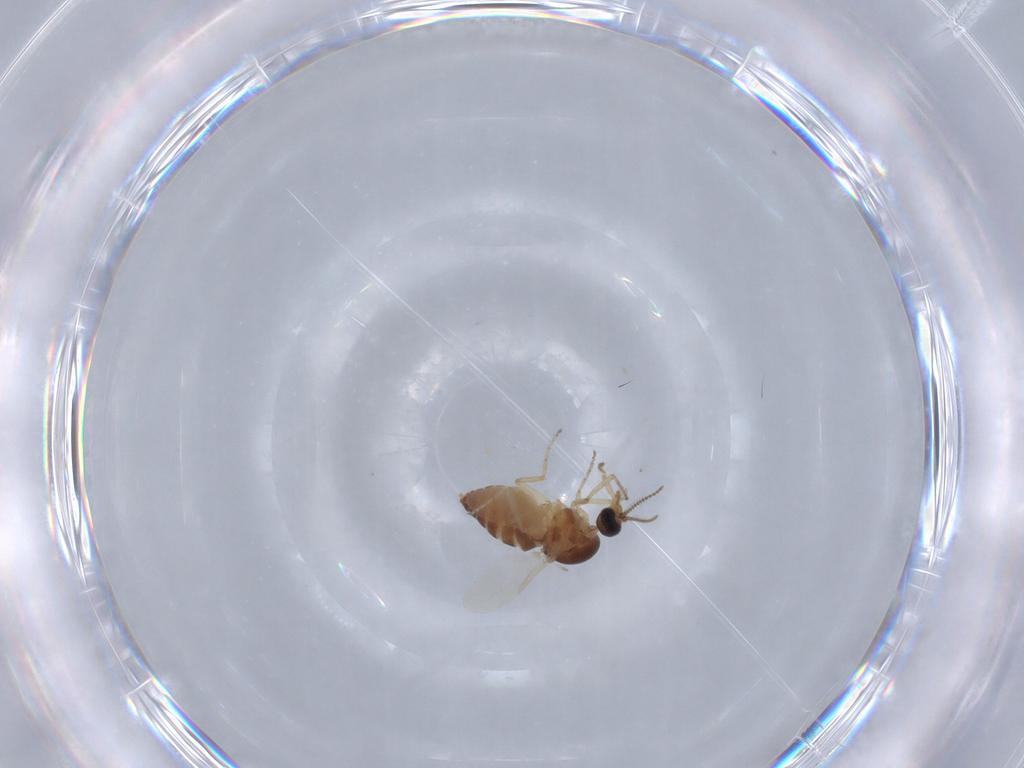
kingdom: Animalia
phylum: Arthropoda
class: Insecta
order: Diptera
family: Ceratopogonidae
